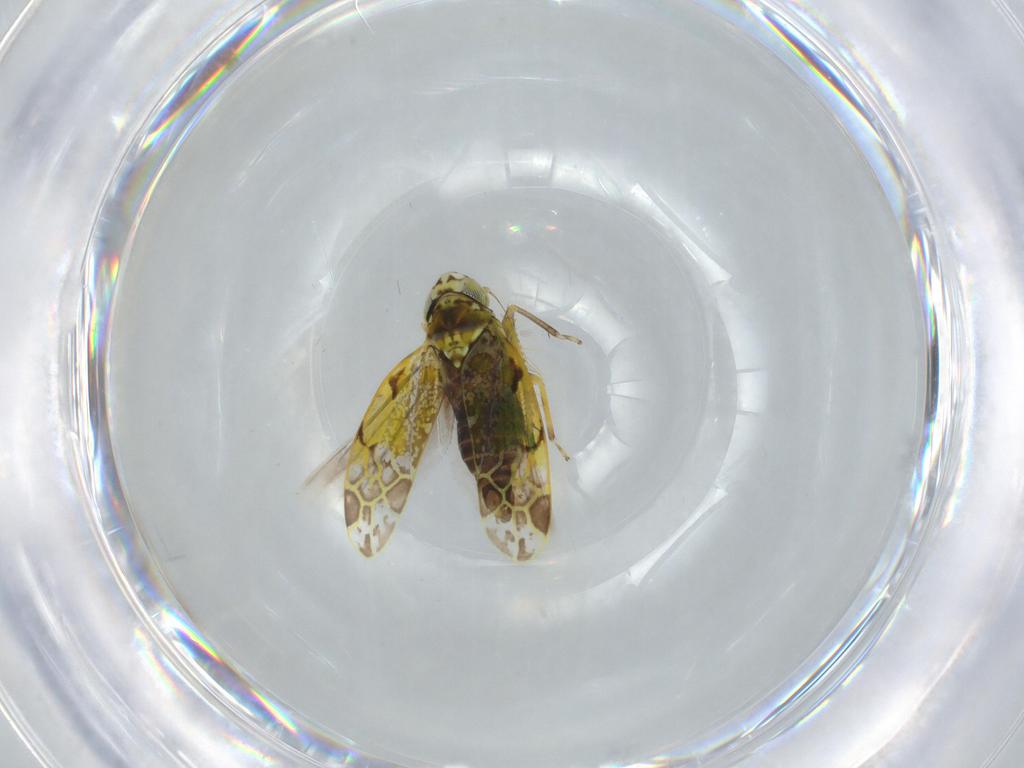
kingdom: Animalia
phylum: Arthropoda
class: Insecta
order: Hemiptera
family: Cicadellidae
